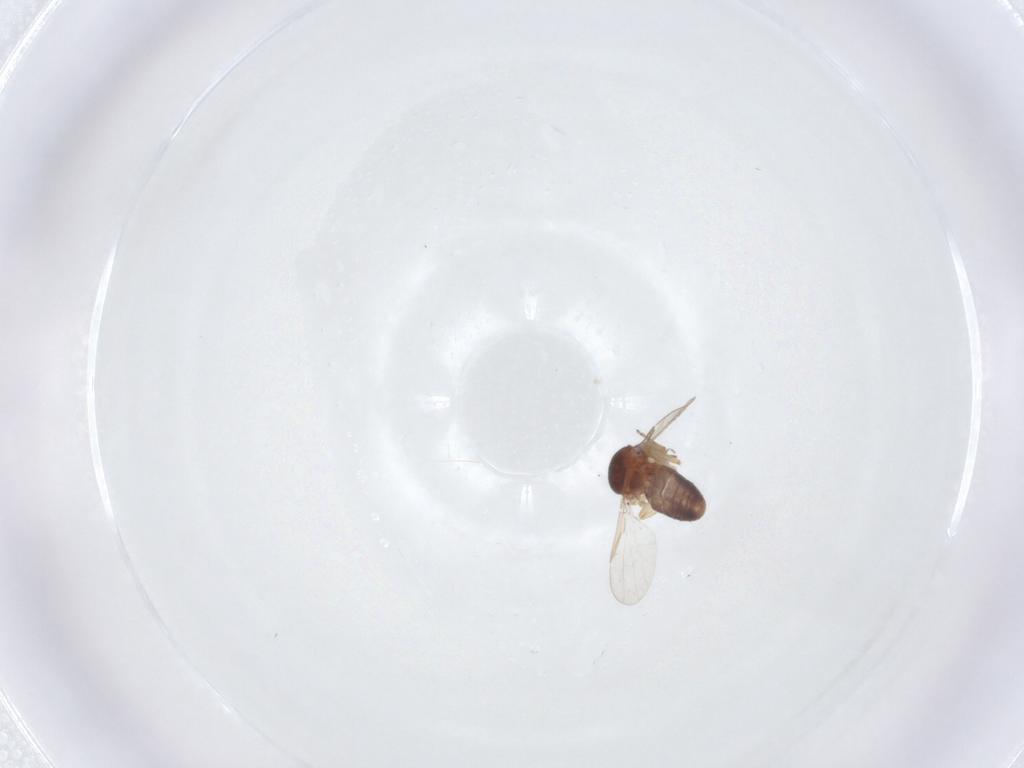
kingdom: Animalia
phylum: Arthropoda
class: Insecta
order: Diptera
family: Ceratopogonidae
